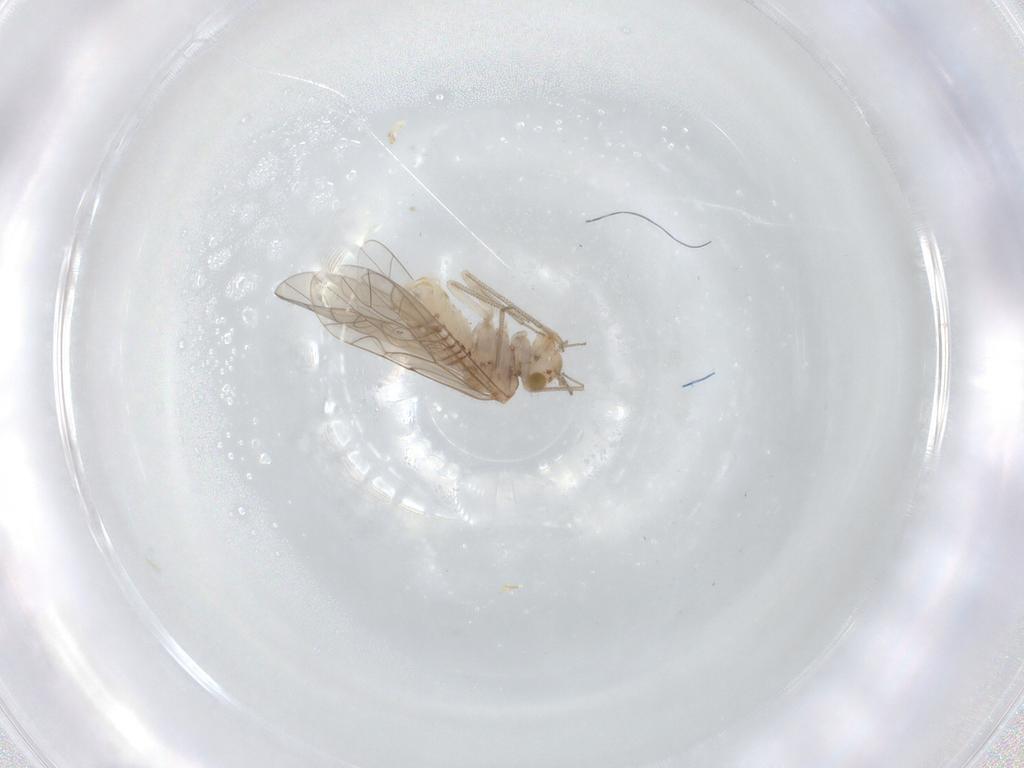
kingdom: Animalia
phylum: Arthropoda
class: Insecta
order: Psocodea
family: Lachesillidae
